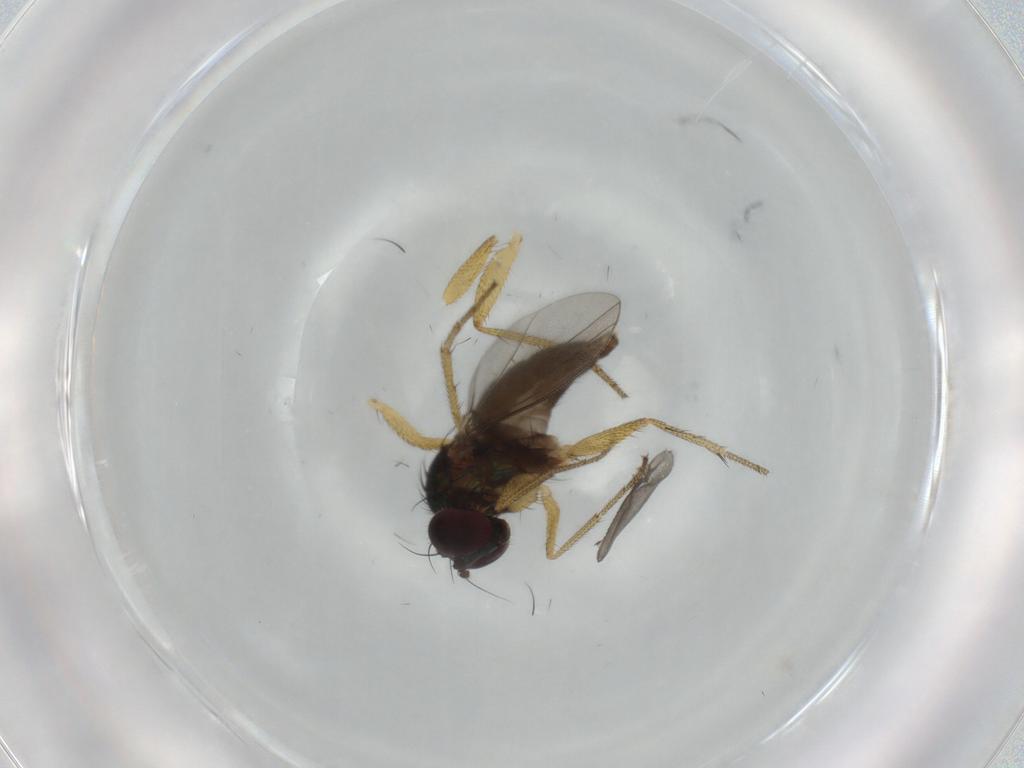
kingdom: Animalia
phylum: Arthropoda
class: Insecta
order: Diptera
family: Dolichopodidae
